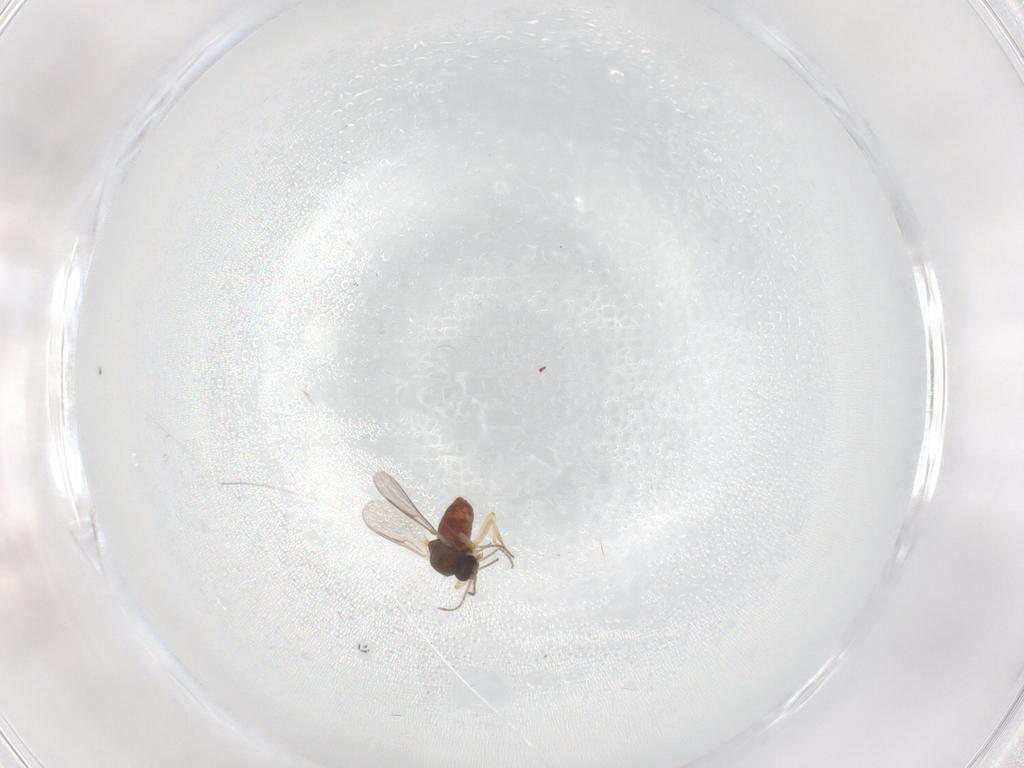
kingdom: Animalia
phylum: Arthropoda
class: Insecta
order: Diptera
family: Ceratopogonidae
